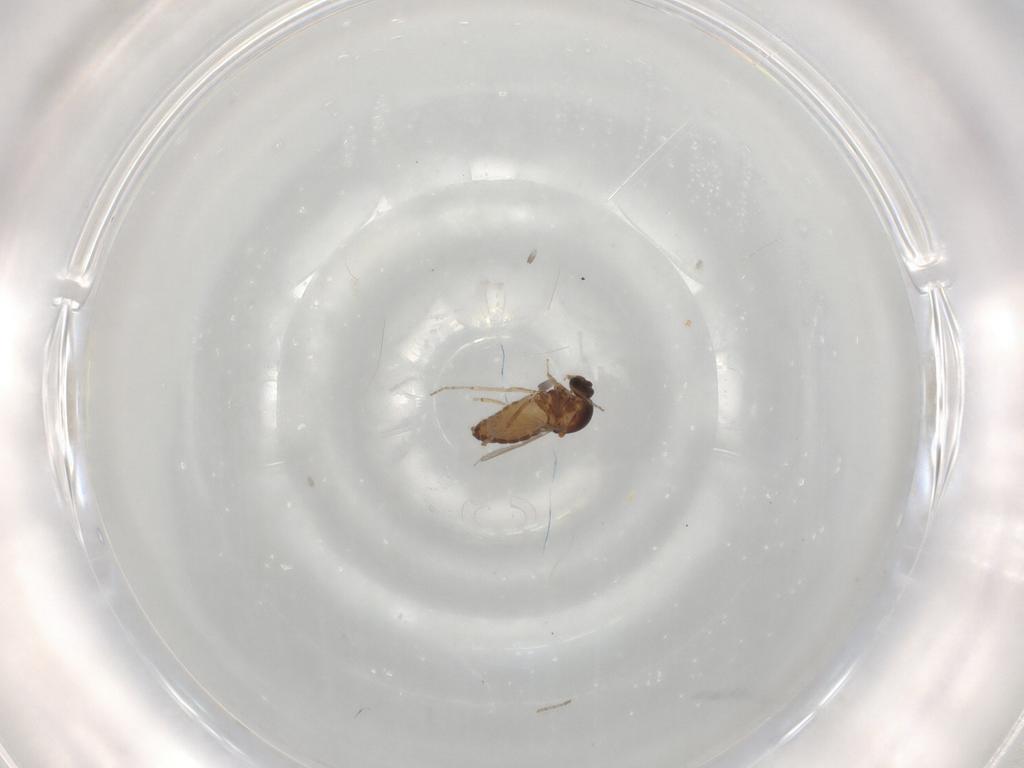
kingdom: Animalia
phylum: Arthropoda
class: Insecta
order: Diptera
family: Ceratopogonidae
